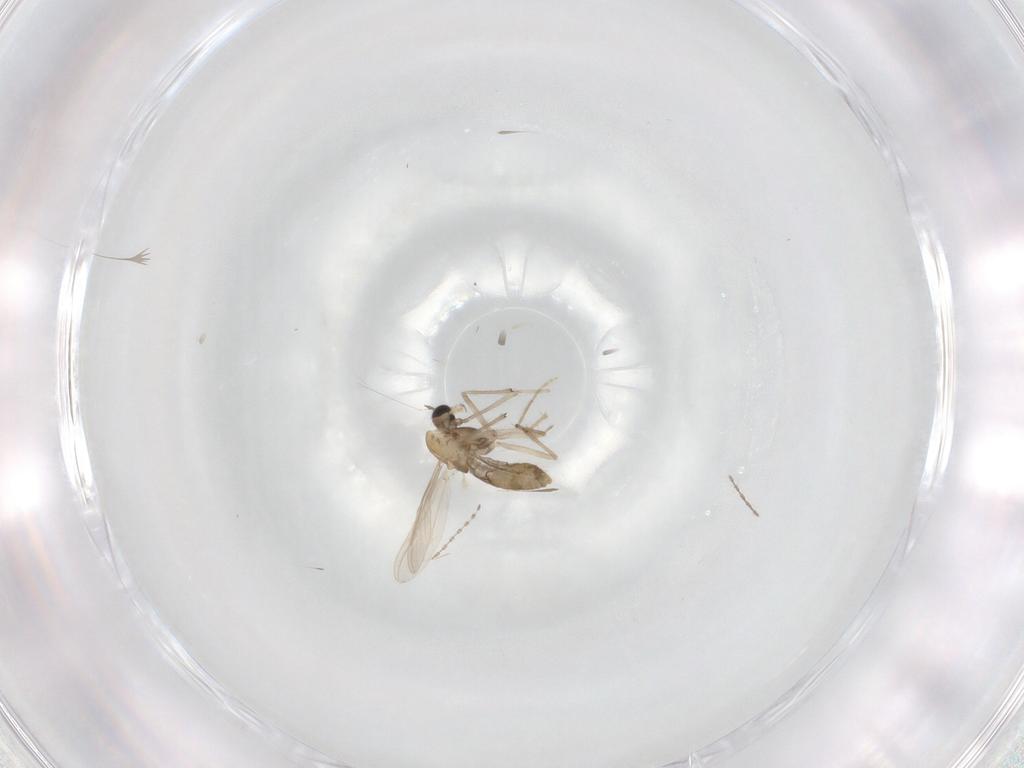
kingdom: Animalia
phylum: Arthropoda
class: Insecta
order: Diptera
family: Chironomidae
